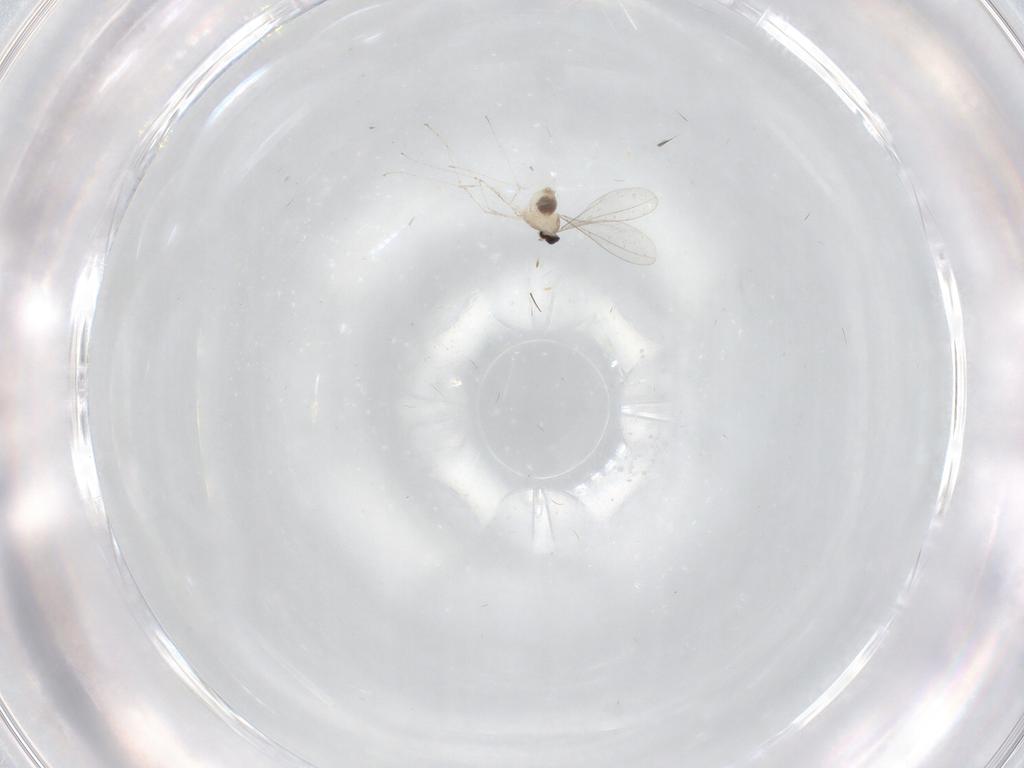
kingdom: Animalia
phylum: Arthropoda
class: Insecta
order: Diptera
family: Cecidomyiidae
